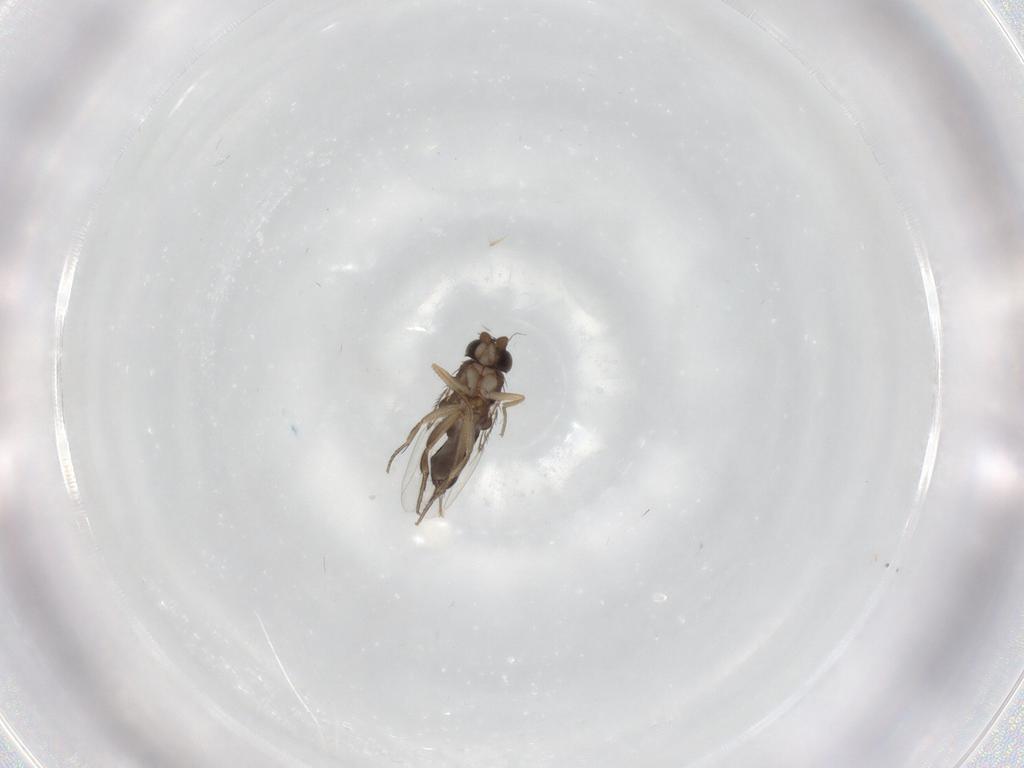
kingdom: Animalia
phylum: Arthropoda
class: Insecta
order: Diptera
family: Phoridae
